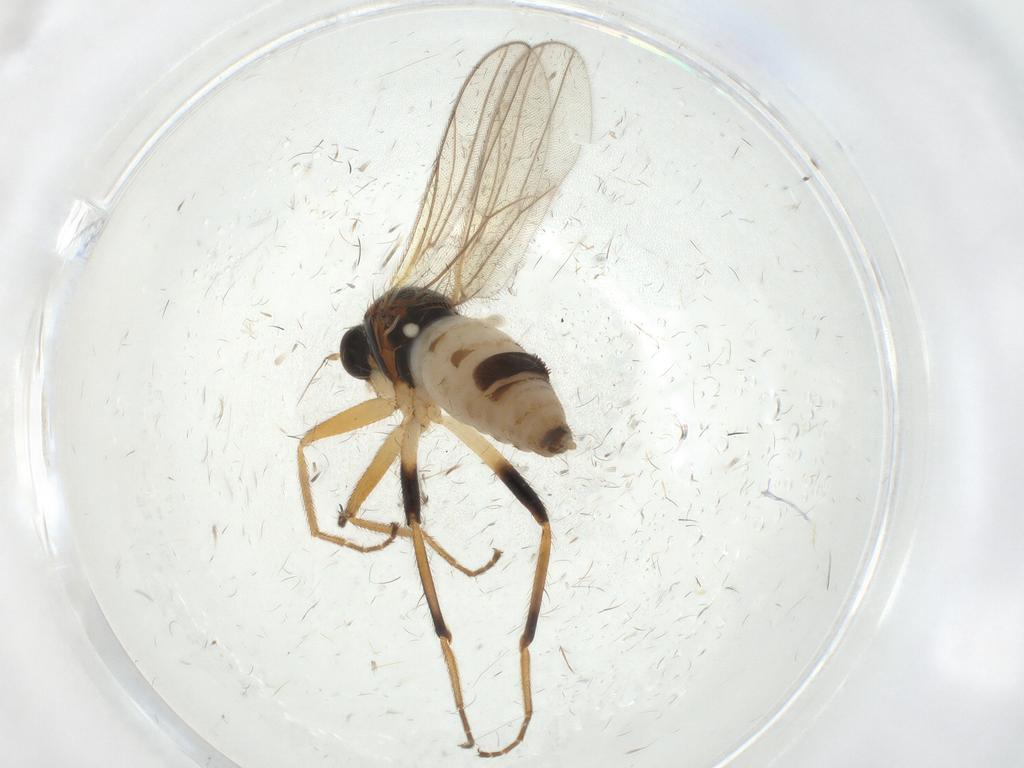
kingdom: Animalia
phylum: Arthropoda
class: Insecta
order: Diptera
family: Hybotidae
